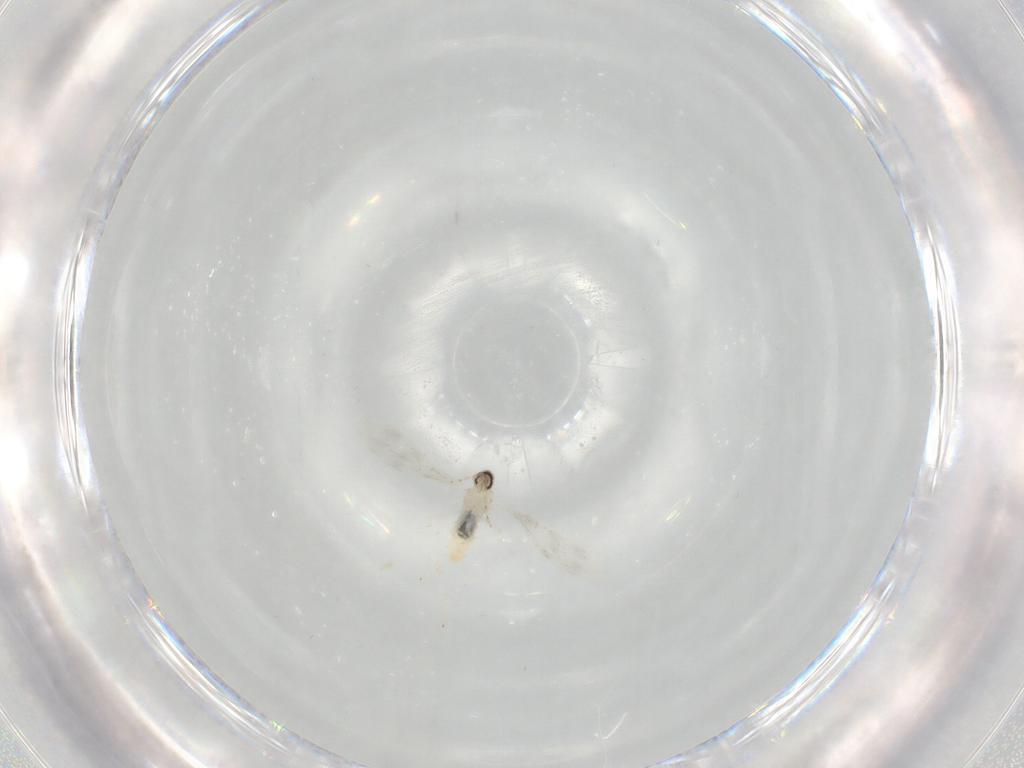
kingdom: Animalia
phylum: Arthropoda
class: Insecta
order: Diptera
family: Cecidomyiidae
